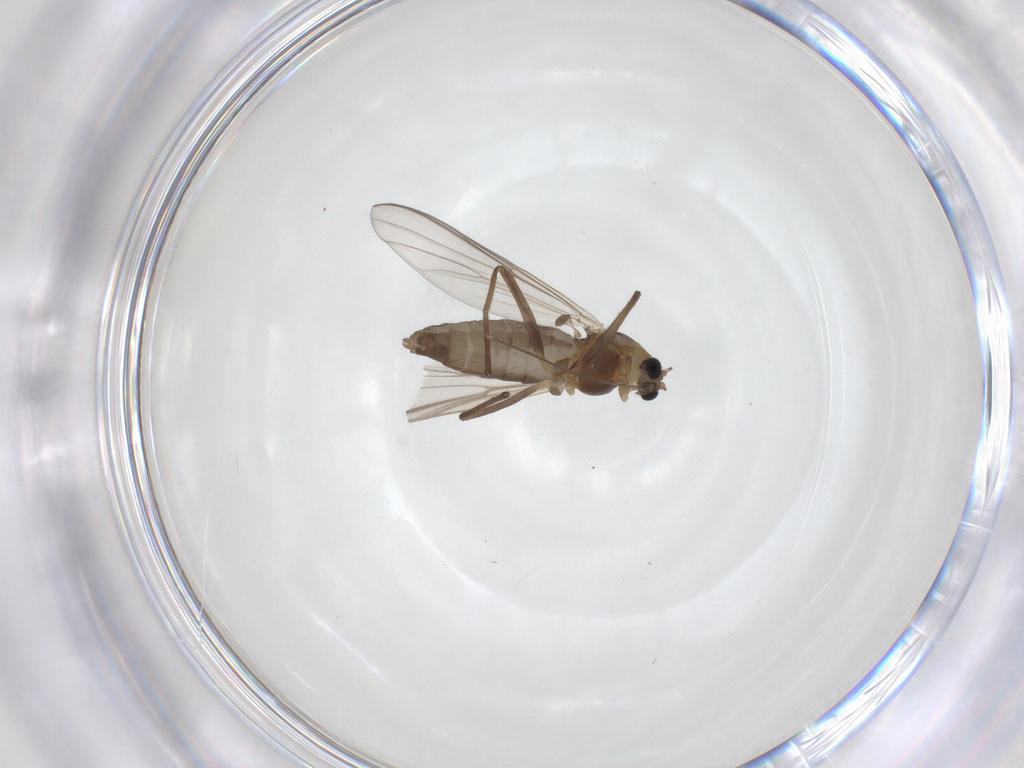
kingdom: Animalia
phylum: Arthropoda
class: Insecta
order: Diptera
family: Chironomidae
